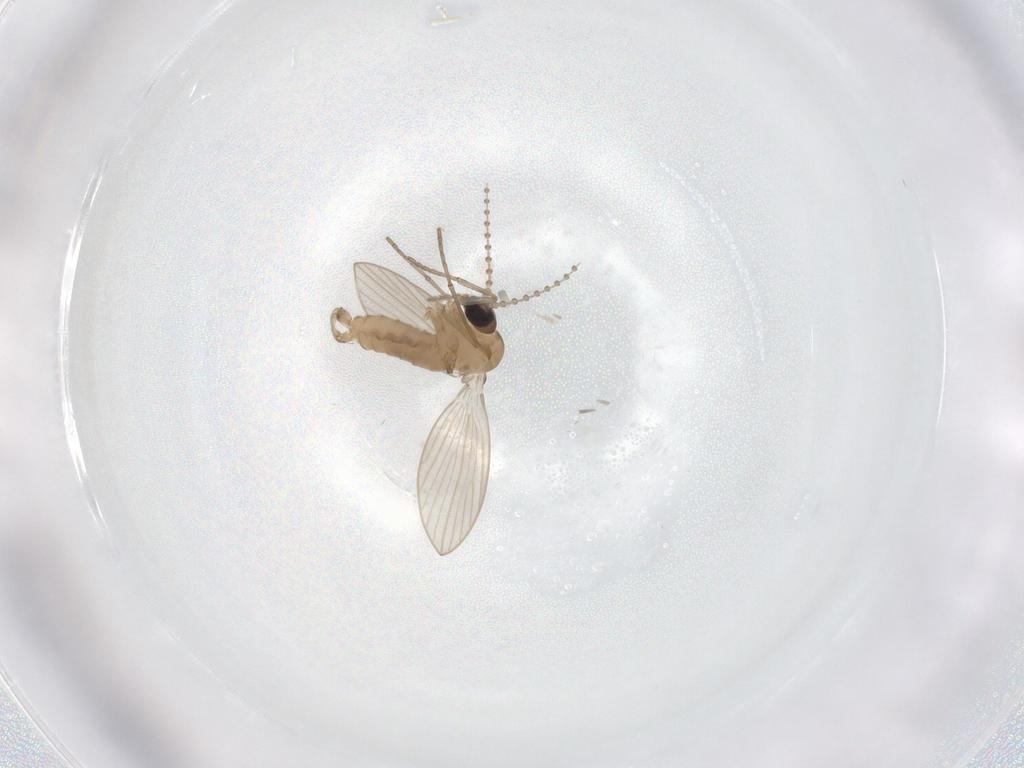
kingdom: Animalia
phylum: Arthropoda
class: Insecta
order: Diptera
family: Psychodidae
